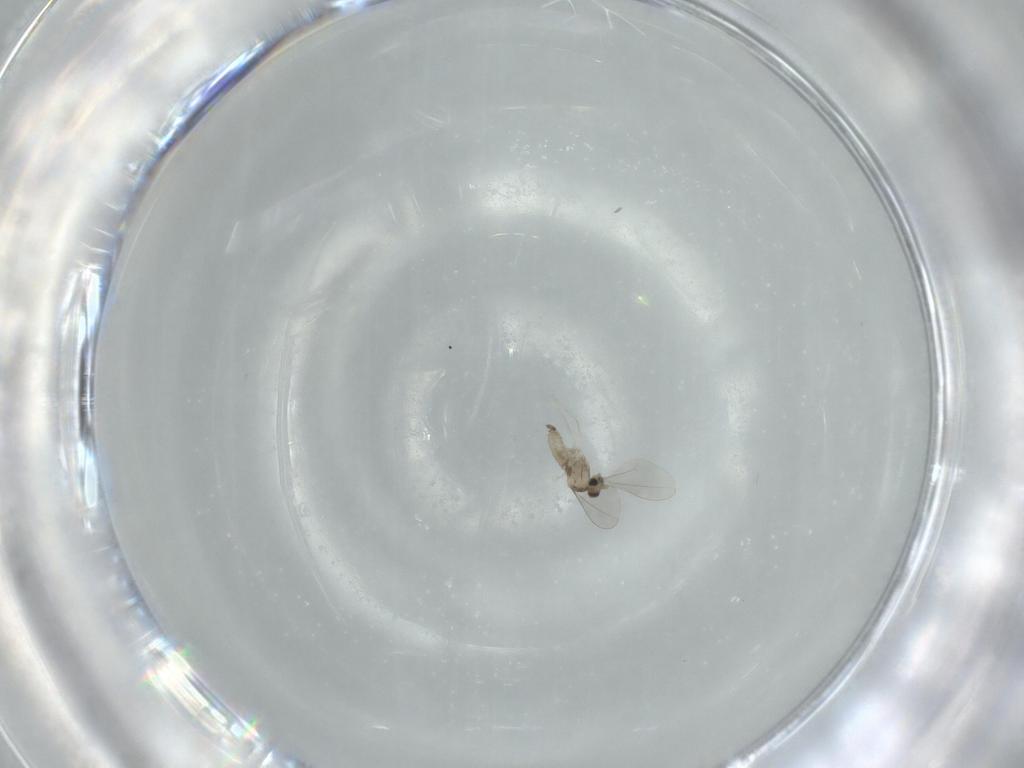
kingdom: Animalia
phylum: Arthropoda
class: Insecta
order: Diptera
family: Cecidomyiidae
